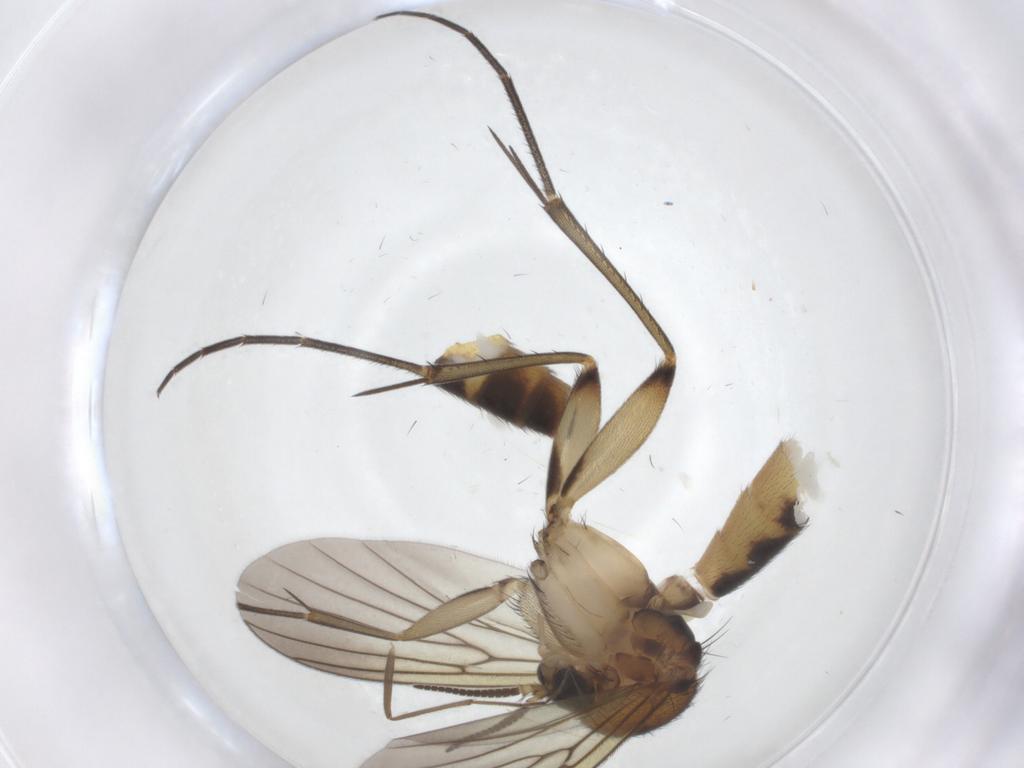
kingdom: Animalia
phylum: Arthropoda
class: Insecta
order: Diptera
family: Mycetophilidae
